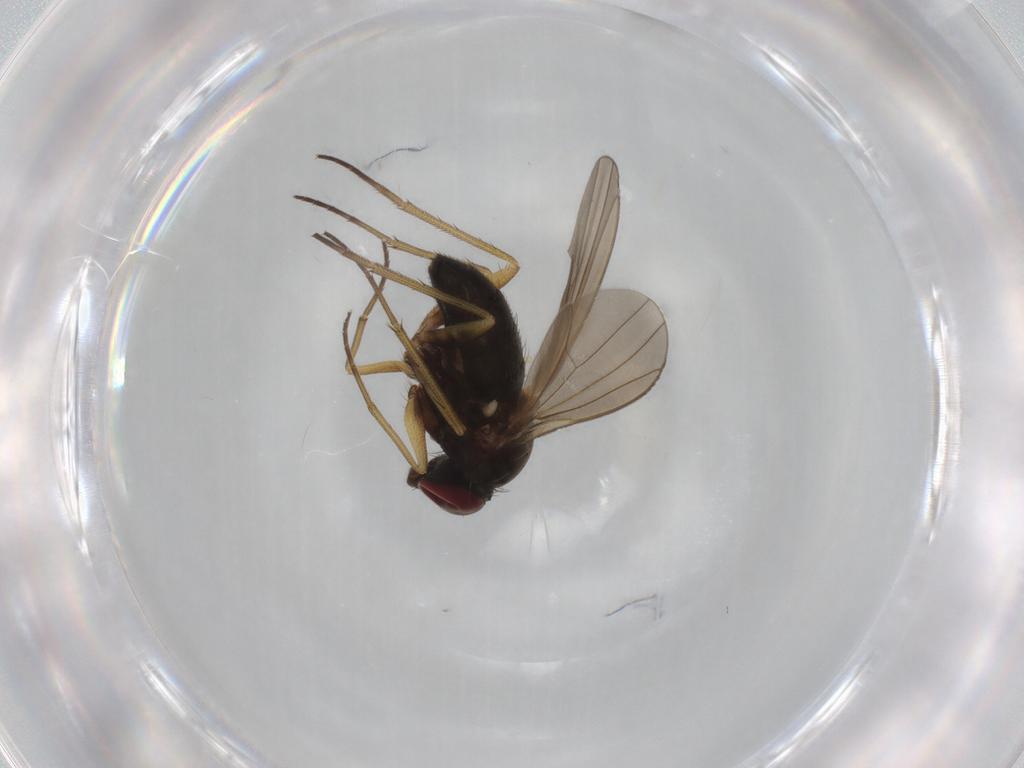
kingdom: Animalia
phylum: Arthropoda
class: Insecta
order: Diptera
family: Cecidomyiidae
